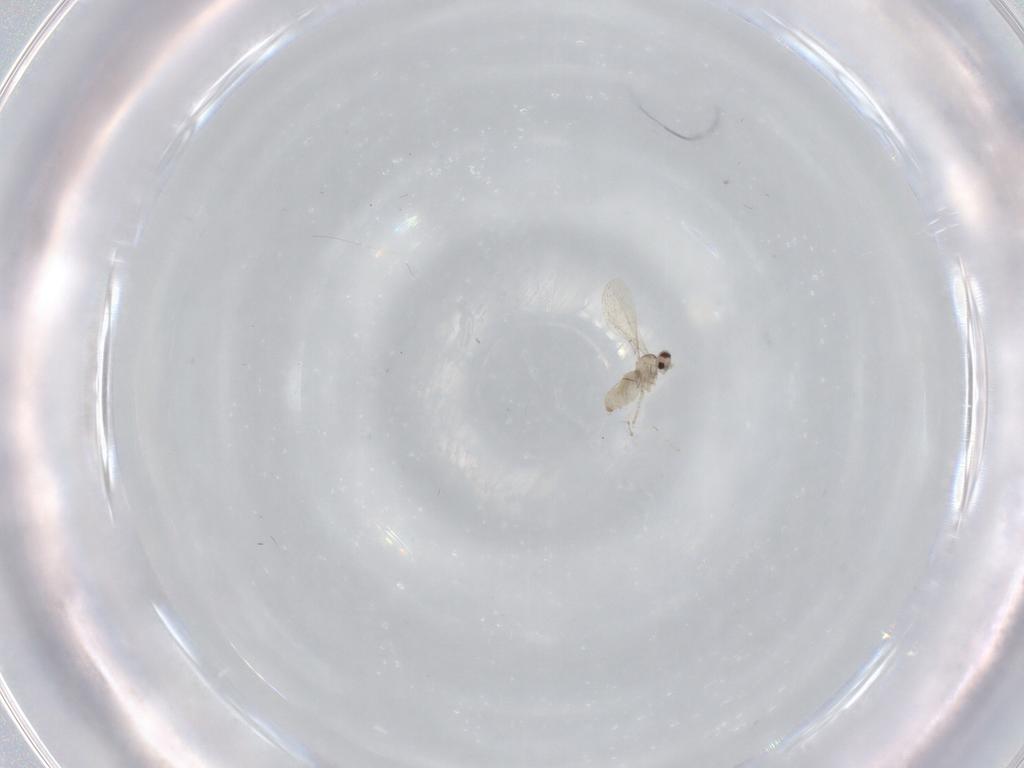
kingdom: Animalia
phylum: Arthropoda
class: Insecta
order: Diptera
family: Cecidomyiidae
